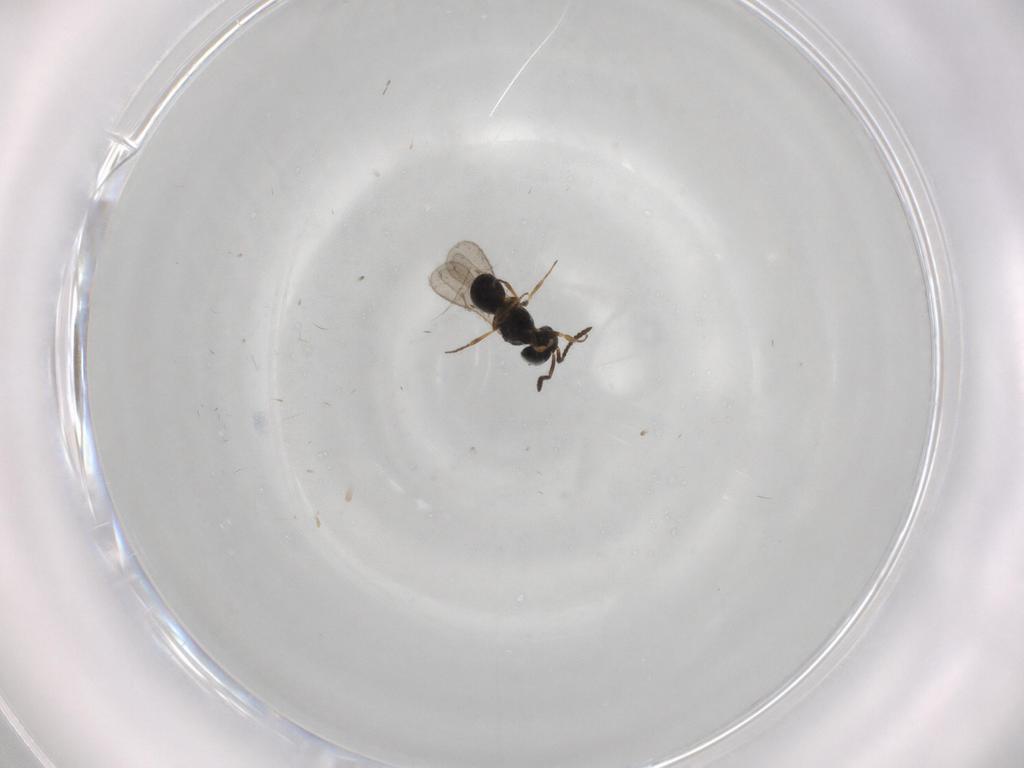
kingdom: Animalia
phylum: Arthropoda
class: Insecta
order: Hymenoptera
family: Scelionidae
